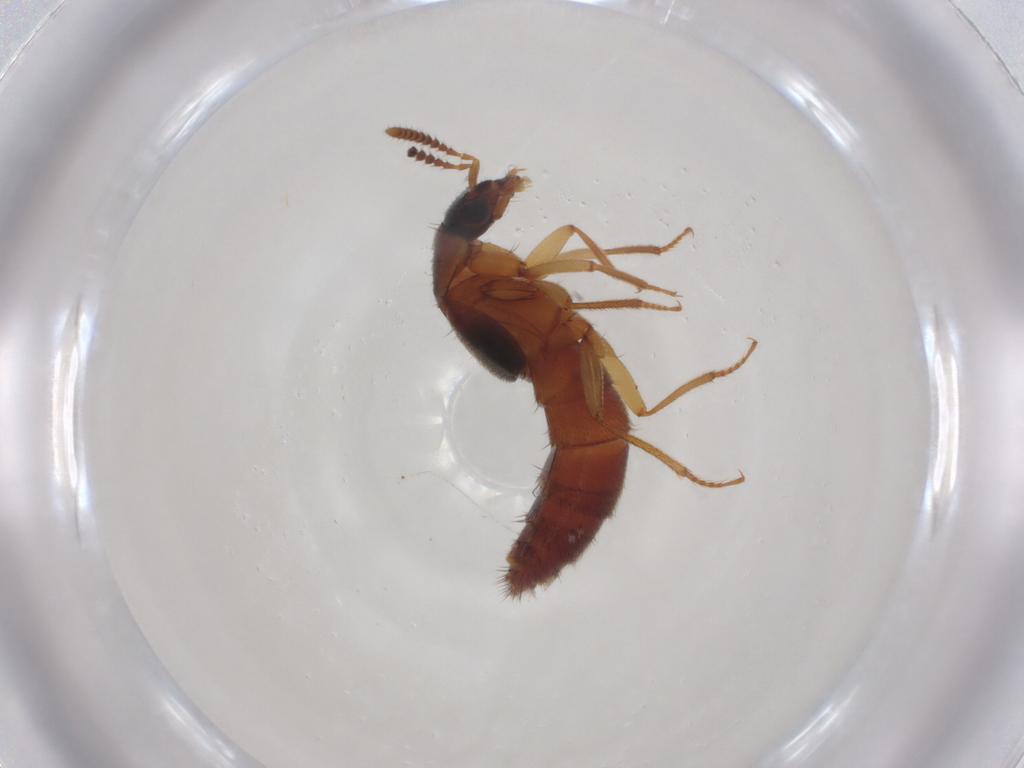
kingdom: Animalia
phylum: Arthropoda
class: Insecta
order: Coleoptera
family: Staphylinidae
